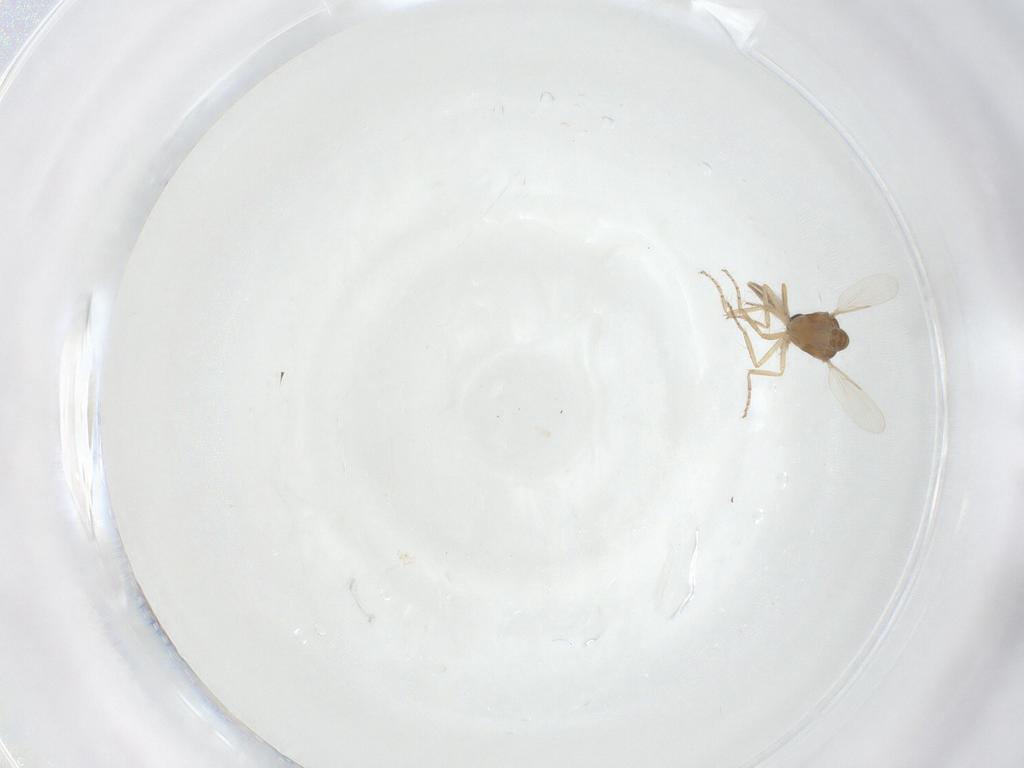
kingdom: Animalia
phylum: Arthropoda
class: Insecta
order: Diptera
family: Ceratopogonidae
